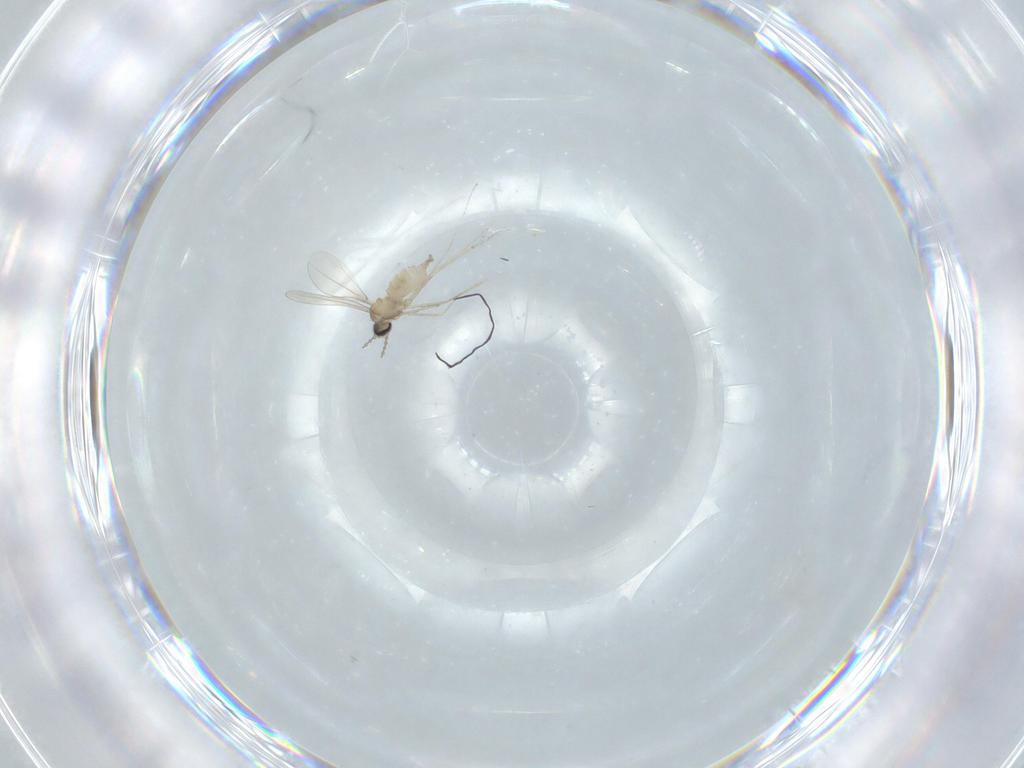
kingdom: Animalia
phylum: Arthropoda
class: Insecta
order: Diptera
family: Cecidomyiidae
